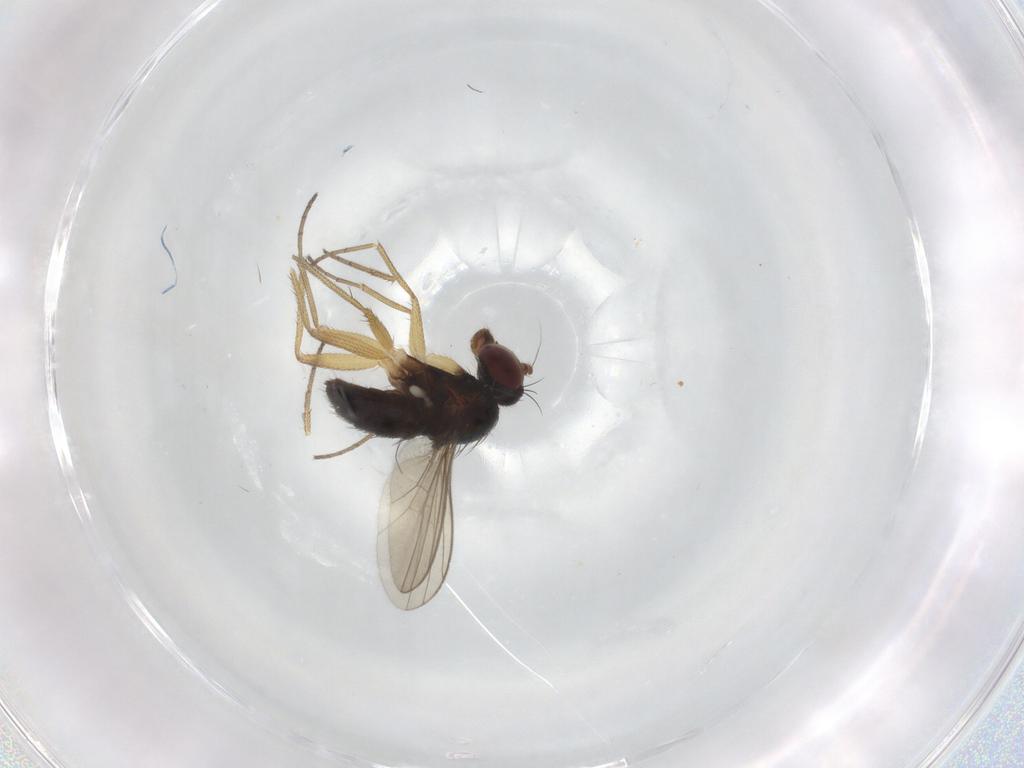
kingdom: Animalia
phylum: Arthropoda
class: Insecta
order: Diptera
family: Dolichopodidae
